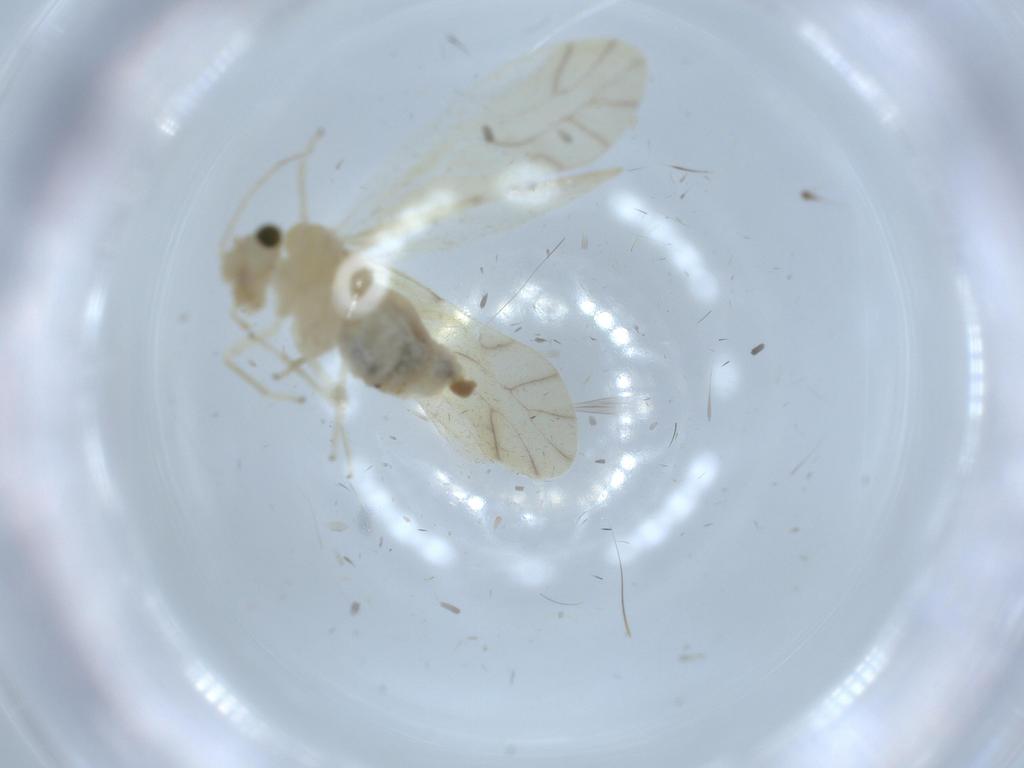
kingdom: Animalia
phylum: Arthropoda
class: Insecta
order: Psocodea
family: Caeciliusidae
